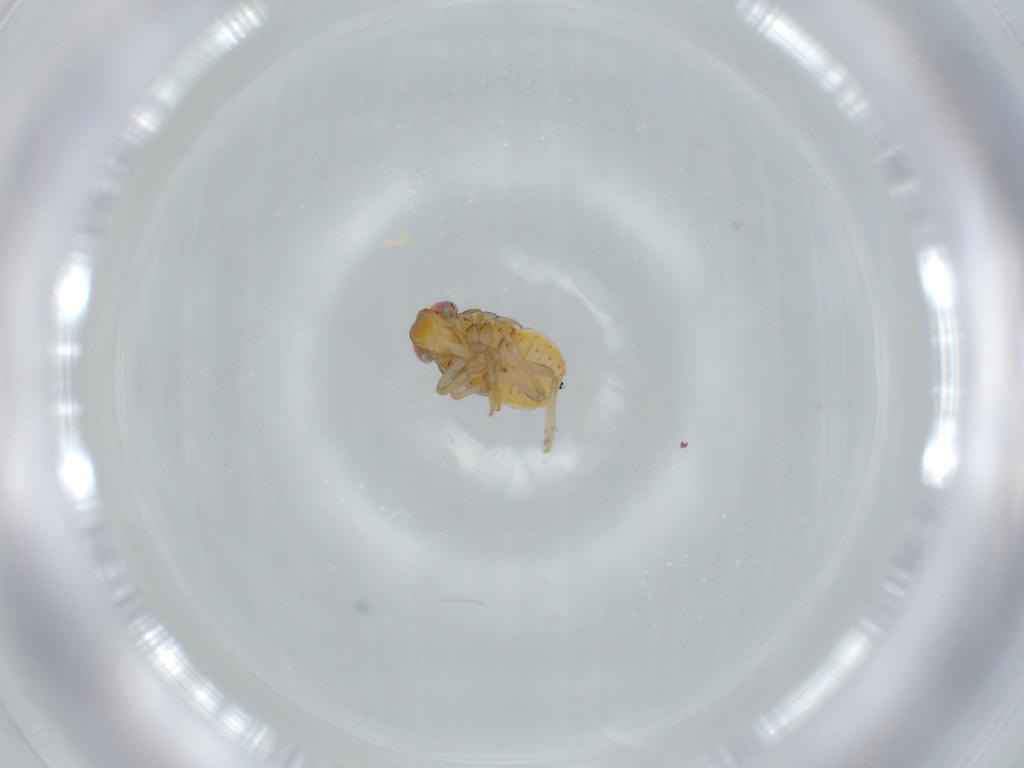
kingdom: Animalia
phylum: Arthropoda
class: Insecta
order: Hemiptera
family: Issidae
